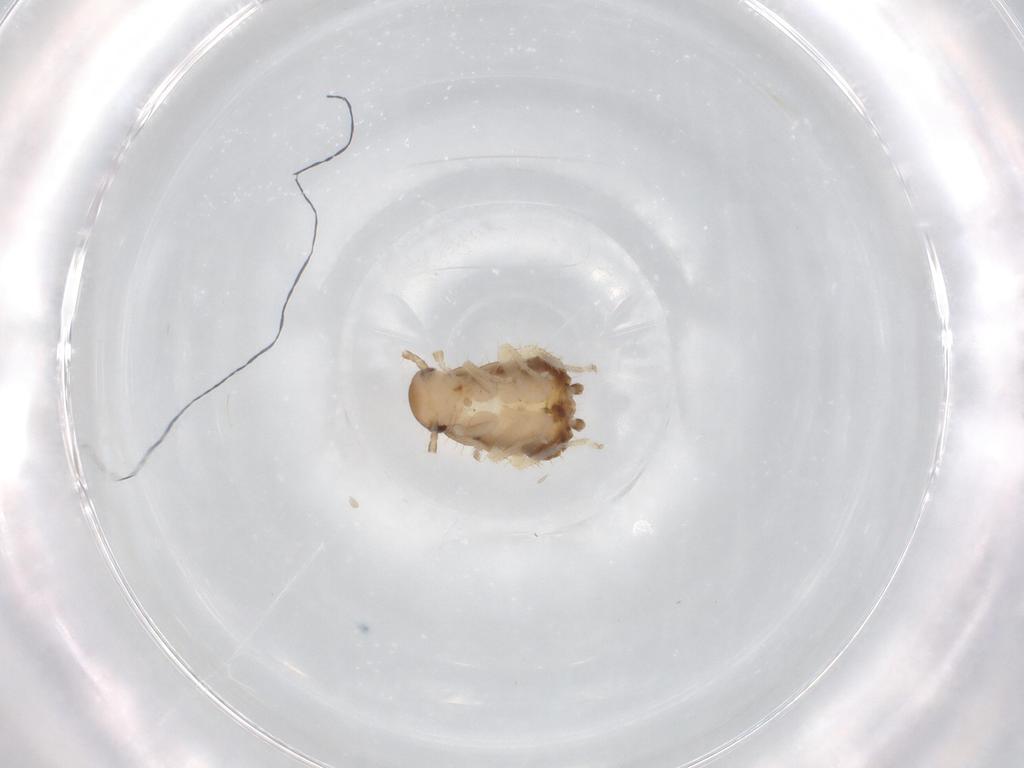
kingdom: Animalia
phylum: Arthropoda
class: Insecta
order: Blattodea
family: Ectobiidae
